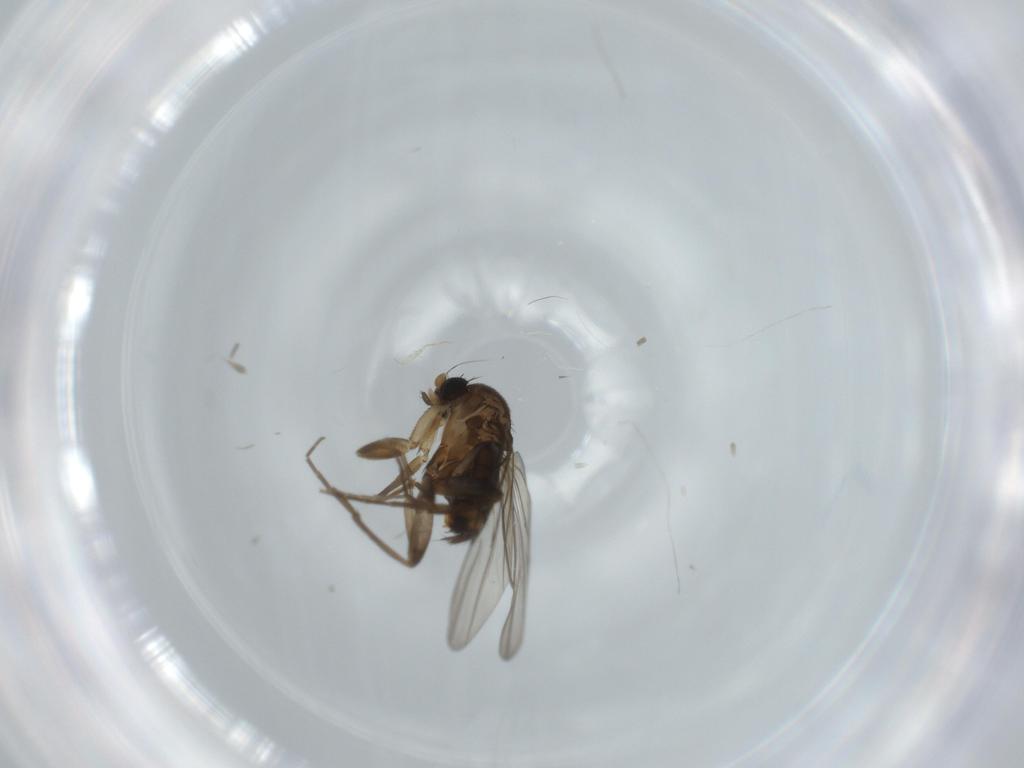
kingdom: Animalia
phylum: Arthropoda
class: Insecta
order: Diptera
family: Phoridae
